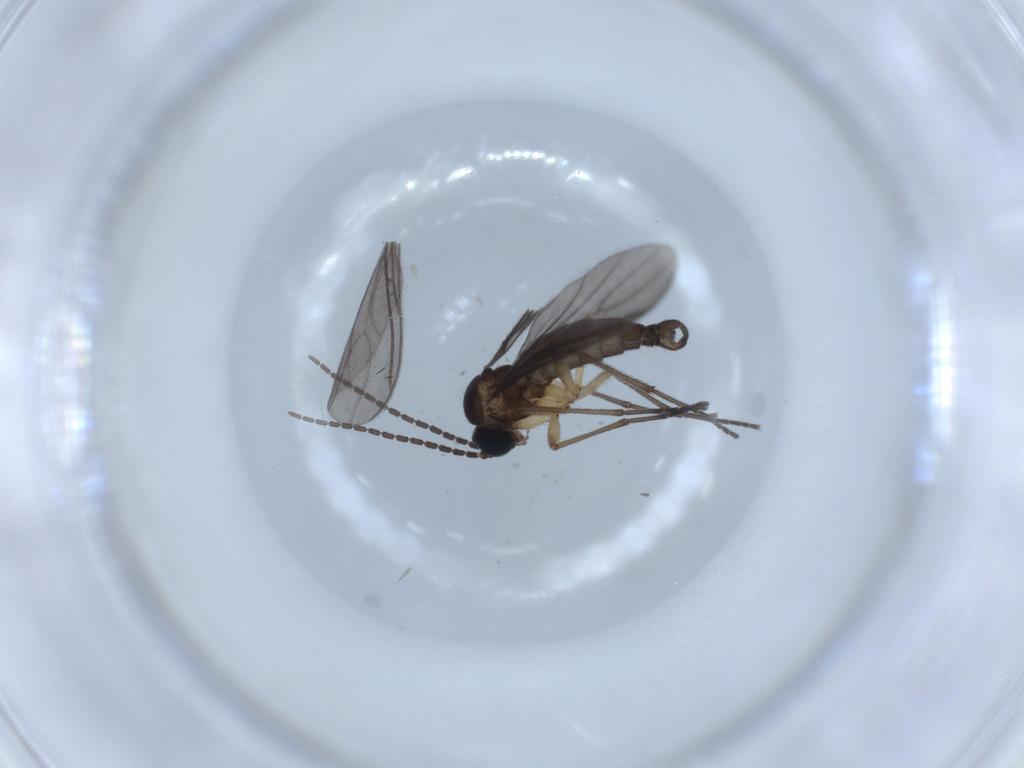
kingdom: Animalia
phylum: Arthropoda
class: Insecta
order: Diptera
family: Sciaridae
